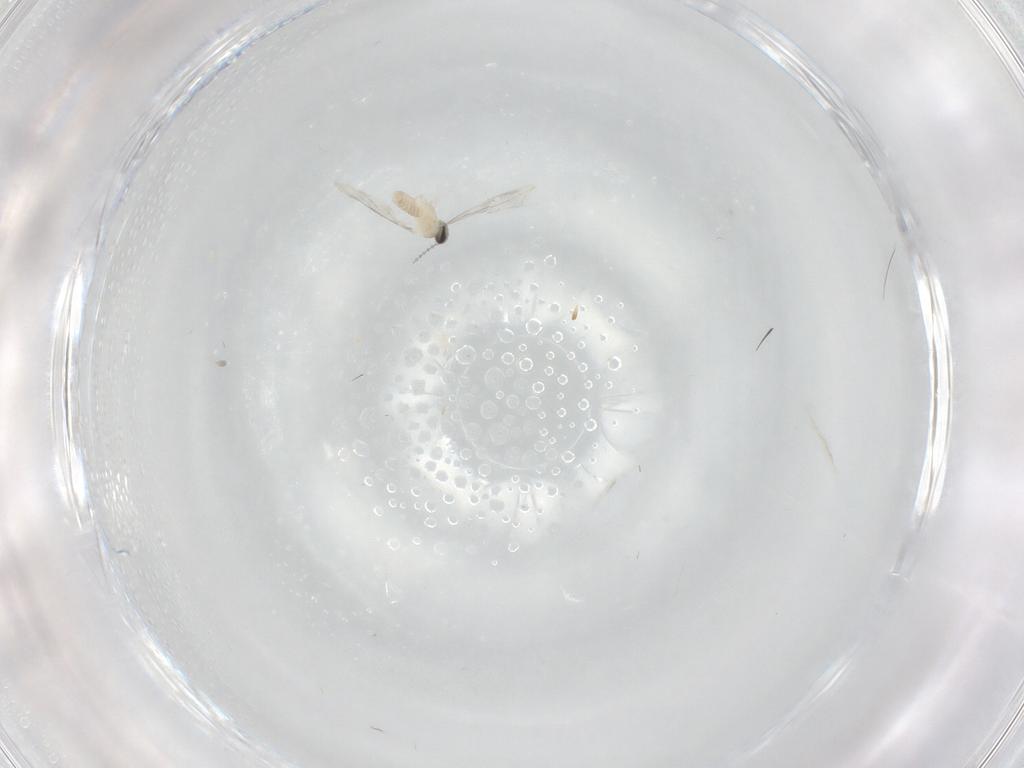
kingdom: Animalia
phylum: Arthropoda
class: Insecta
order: Diptera
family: Cecidomyiidae
